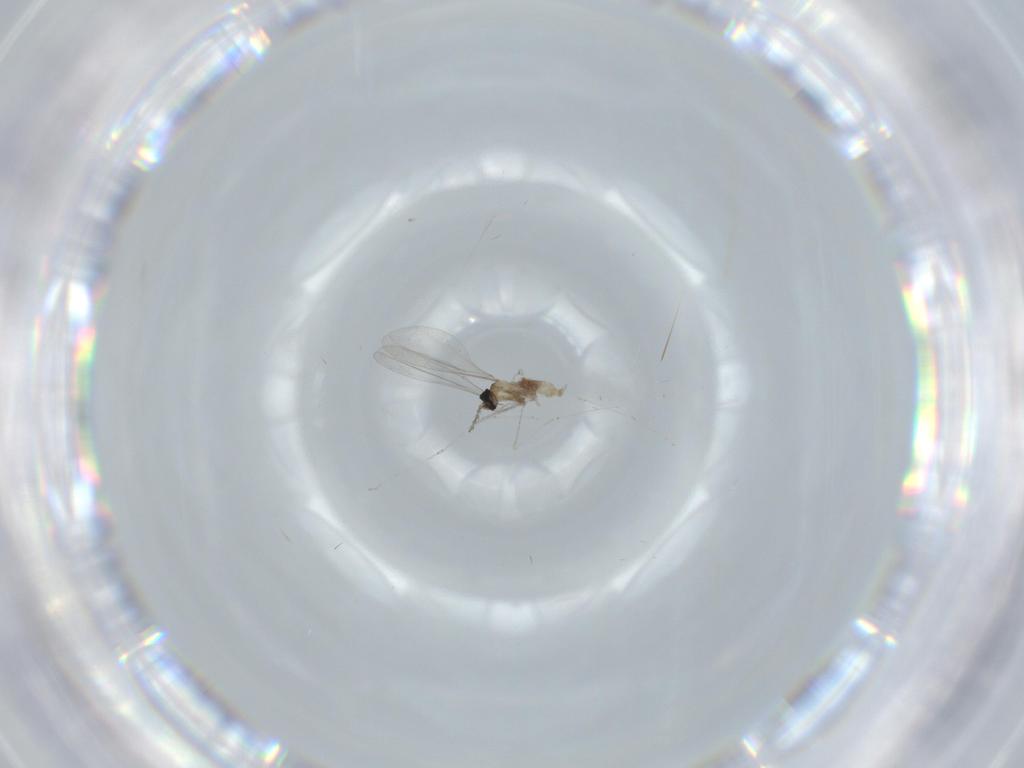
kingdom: Animalia
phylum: Arthropoda
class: Insecta
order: Diptera
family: Cecidomyiidae
